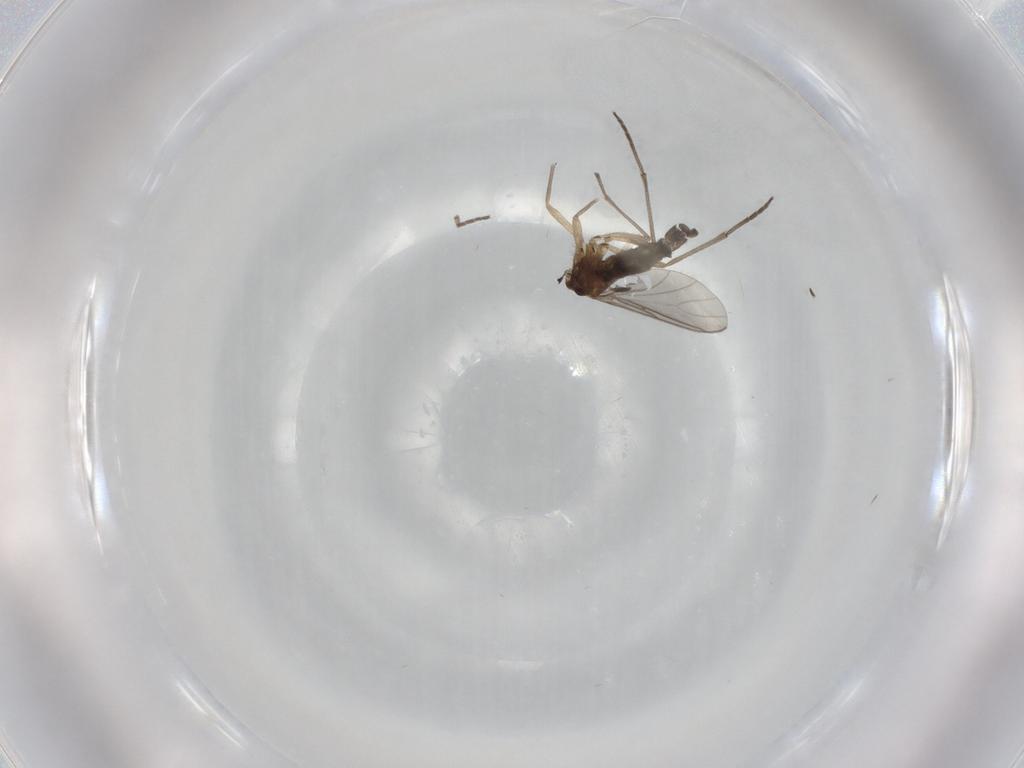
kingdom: Animalia
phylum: Arthropoda
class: Insecta
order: Diptera
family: Sciaridae
